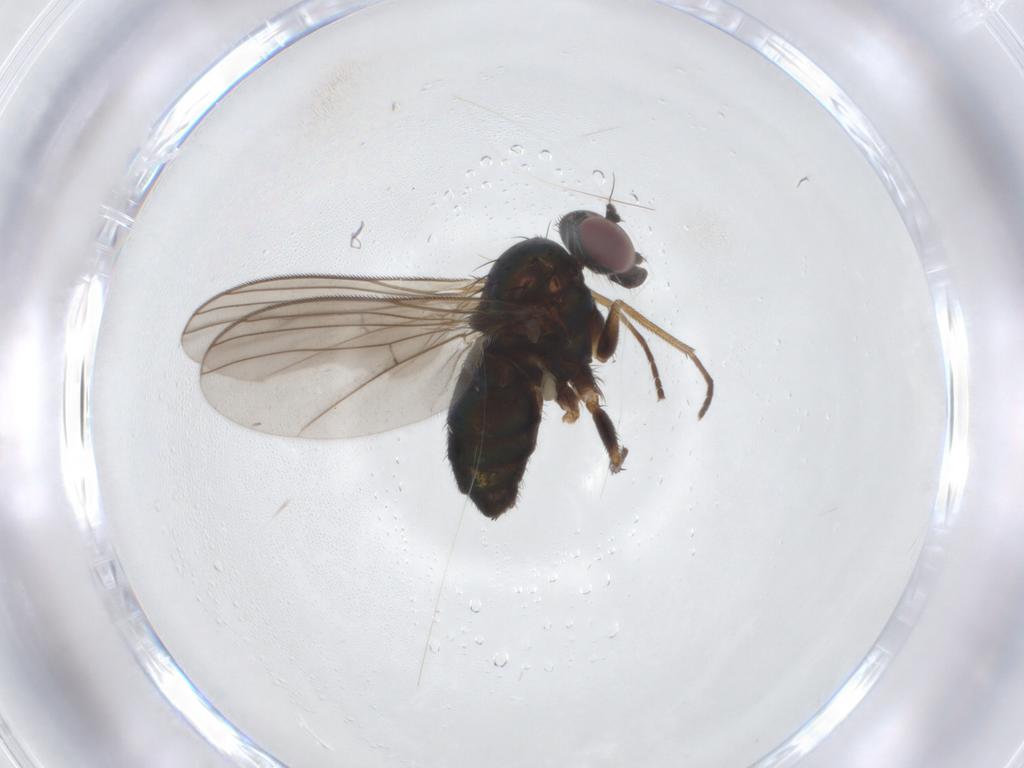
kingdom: Animalia
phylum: Arthropoda
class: Insecta
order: Diptera
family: Dolichopodidae
